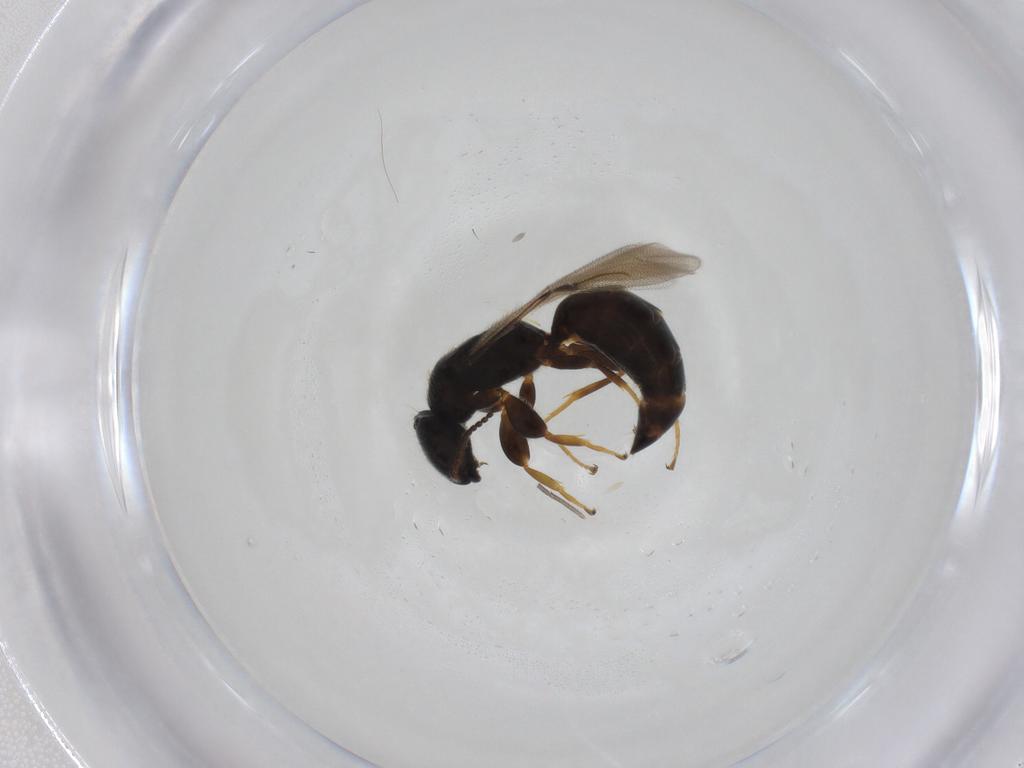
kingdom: Animalia
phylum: Arthropoda
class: Insecta
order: Hymenoptera
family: Bethylidae
